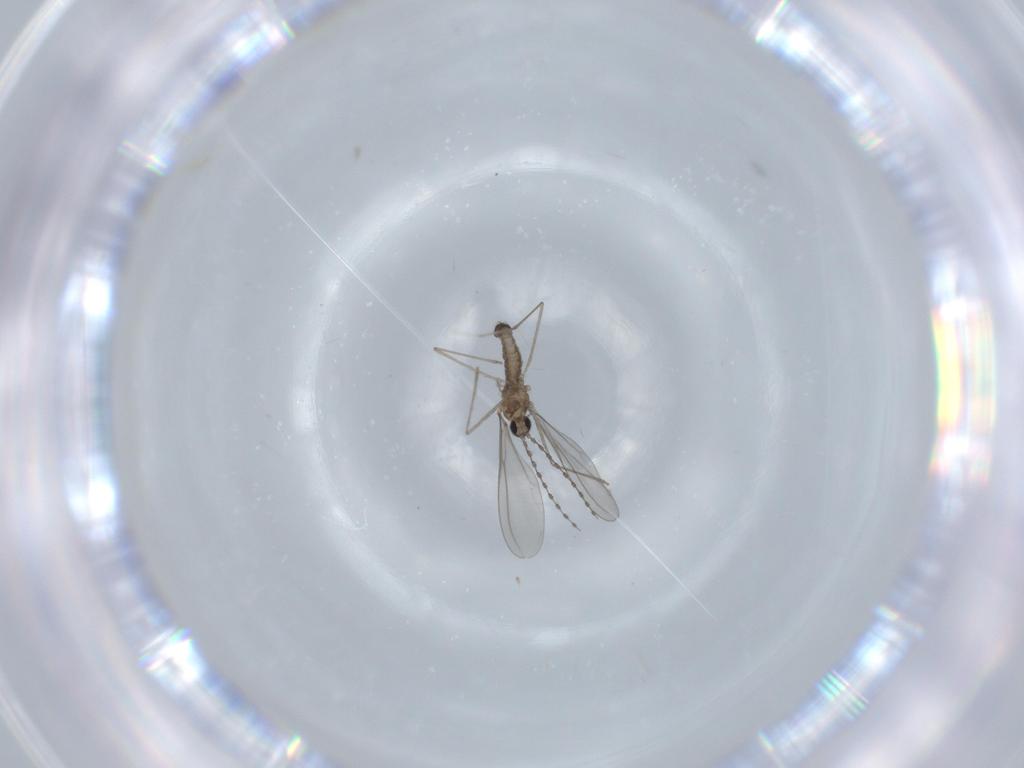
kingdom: Animalia
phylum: Arthropoda
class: Insecta
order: Diptera
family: Cecidomyiidae
